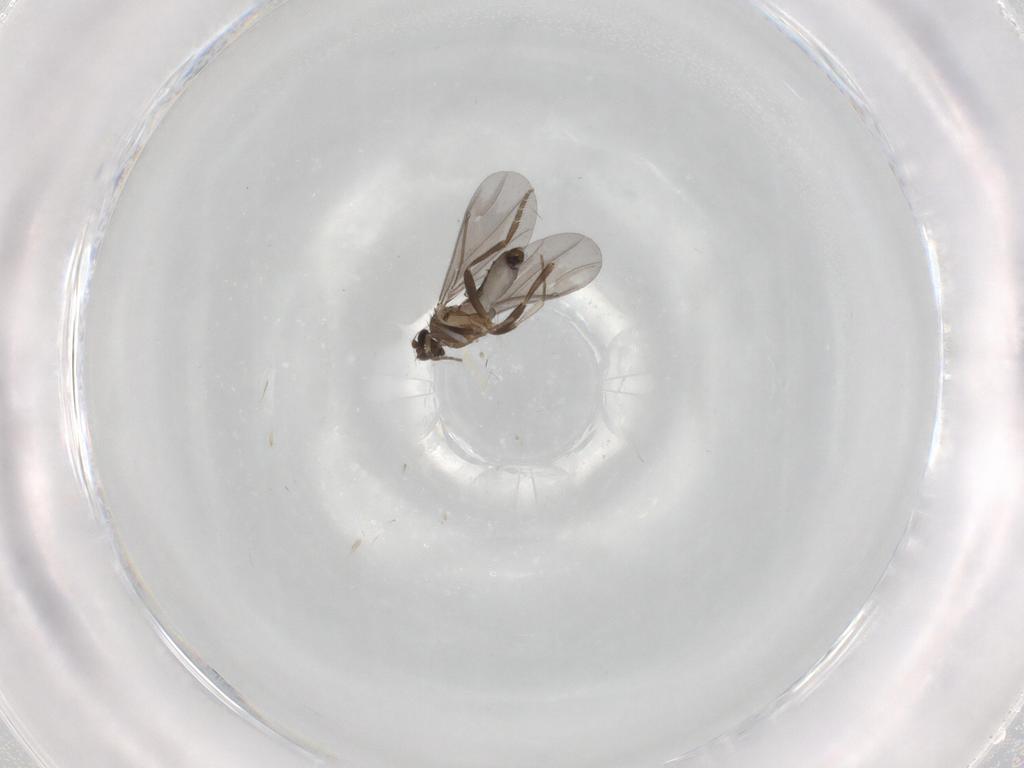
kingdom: Animalia
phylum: Arthropoda
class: Insecta
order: Diptera
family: Phoridae
